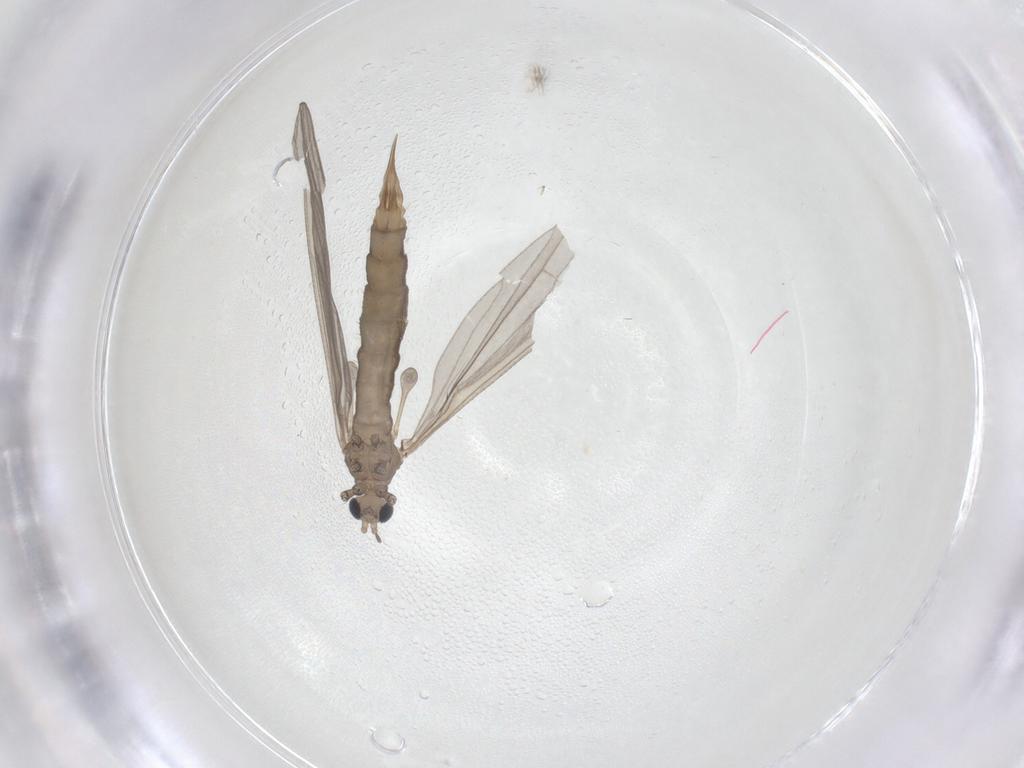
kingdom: Animalia
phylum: Arthropoda
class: Insecta
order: Diptera
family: Limoniidae
